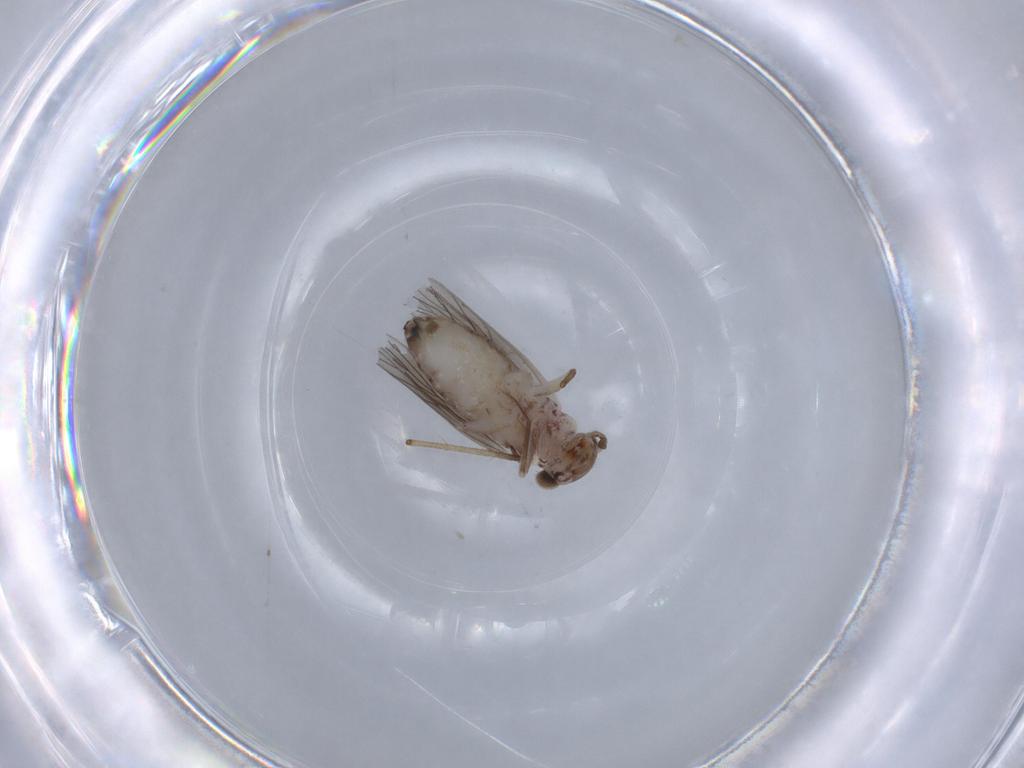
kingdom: Animalia
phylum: Arthropoda
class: Insecta
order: Psocodea
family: Lepidopsocidae
